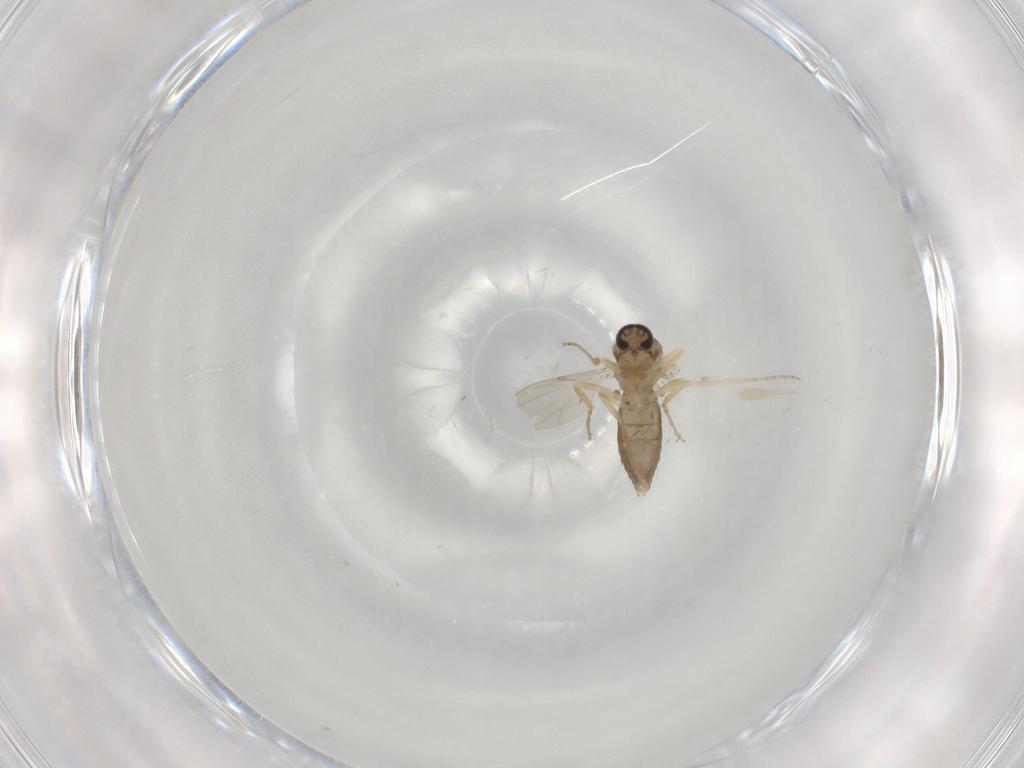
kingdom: Animalia
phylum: Arthropoda
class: Insecta
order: Diptera
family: Ceratopogonidae
